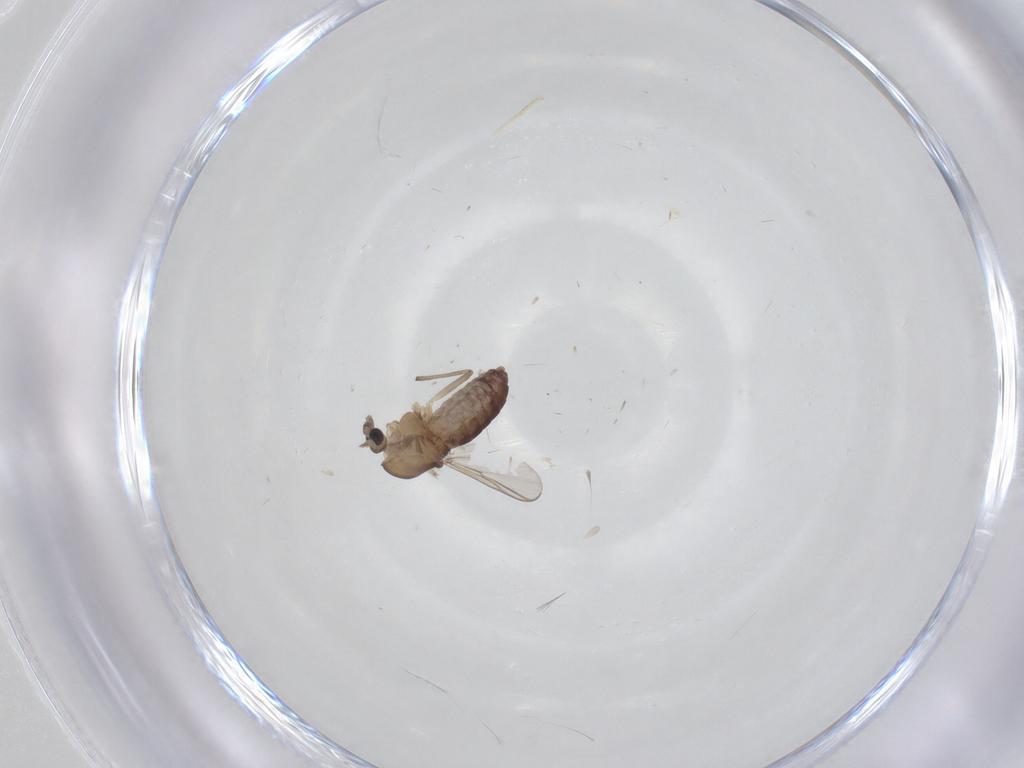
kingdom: Animalia
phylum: Arthropoda
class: Insecta
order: Diptera
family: Chironomidae
